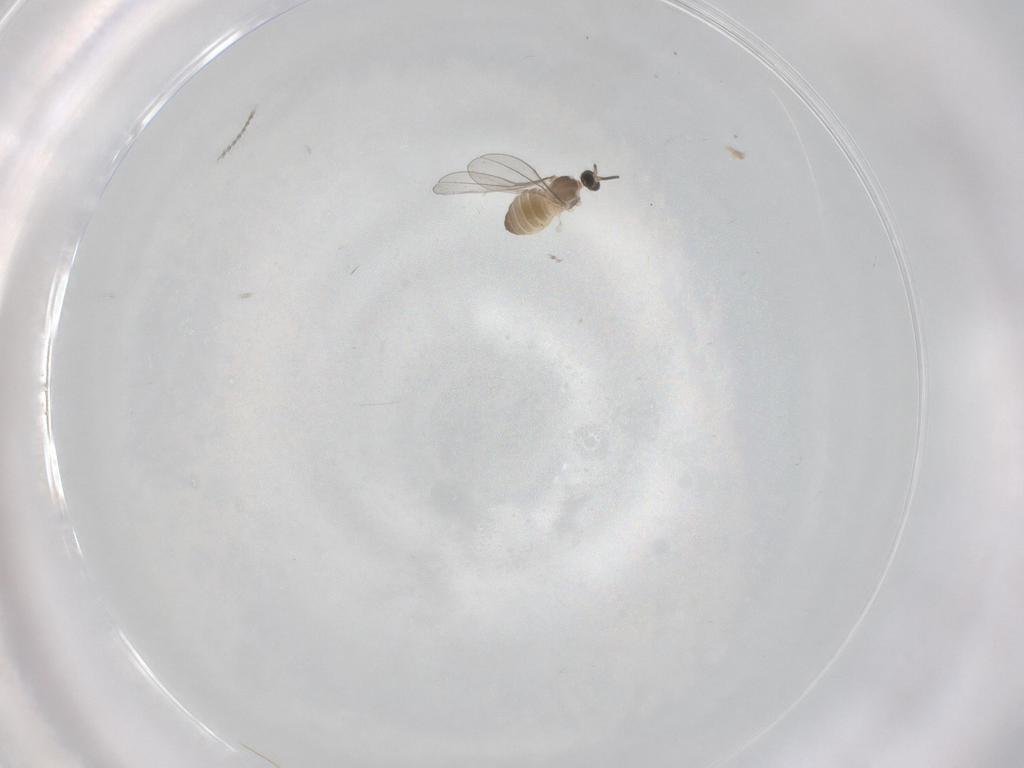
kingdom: Animalia
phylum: Arthropoda
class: Insecta
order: Diptera
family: Cecidomyiidae
